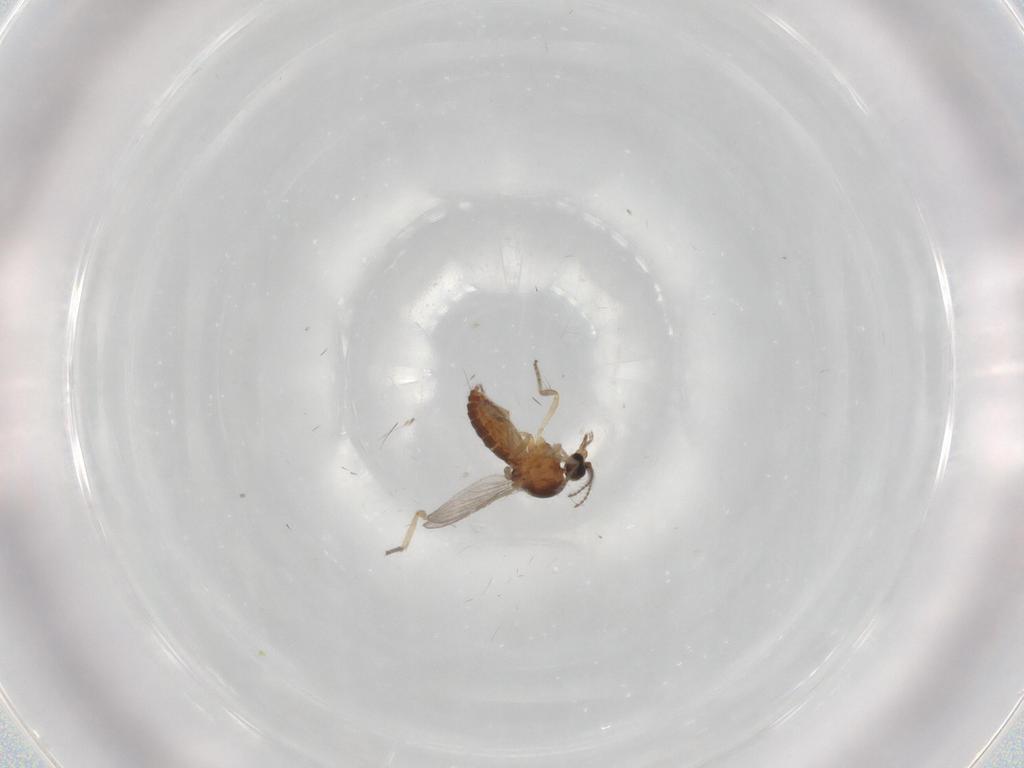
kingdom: Animalia
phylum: Arthropoda
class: Insecta
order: Diptera
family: Ceratopogonidae
